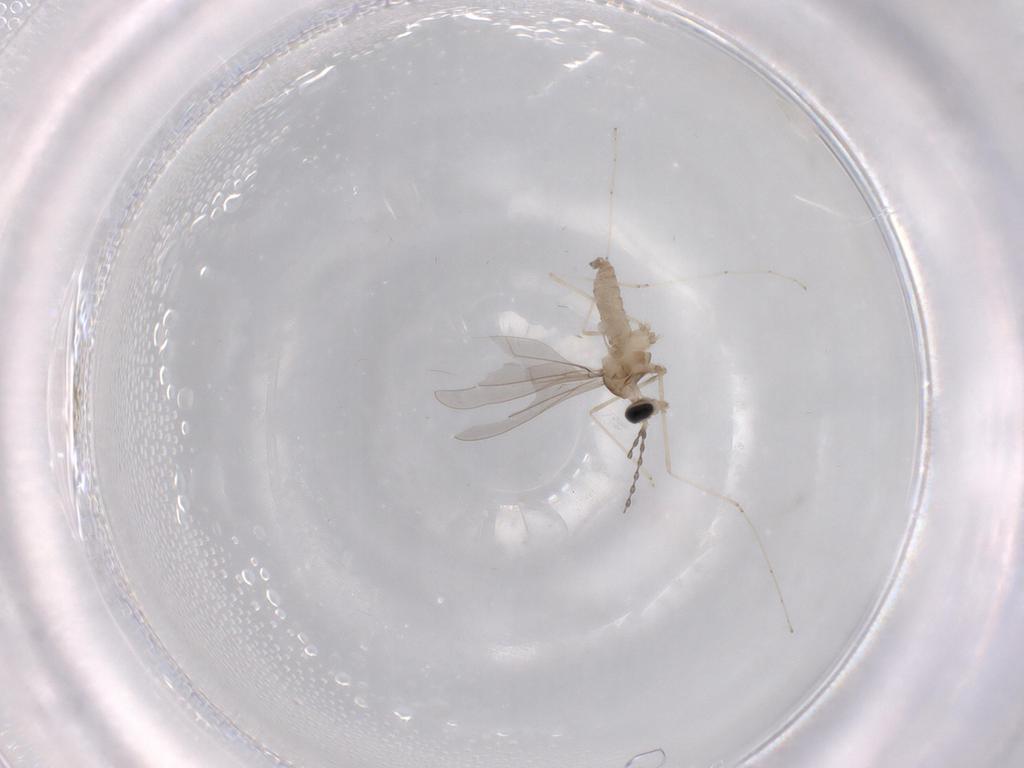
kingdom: Animalia
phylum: Arthropoda
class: Insecta
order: Diptera
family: Cecidomyiidae
